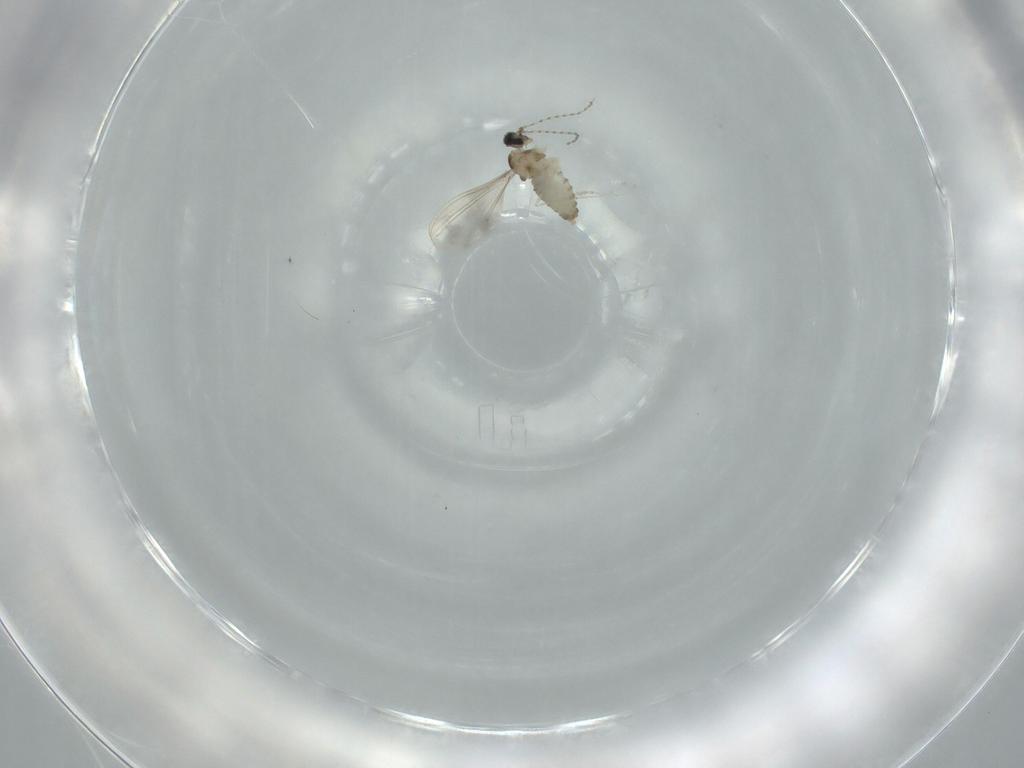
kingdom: Animalia
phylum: Arthropoda
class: Insecta
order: Diptera
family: Cecidomyiidae
